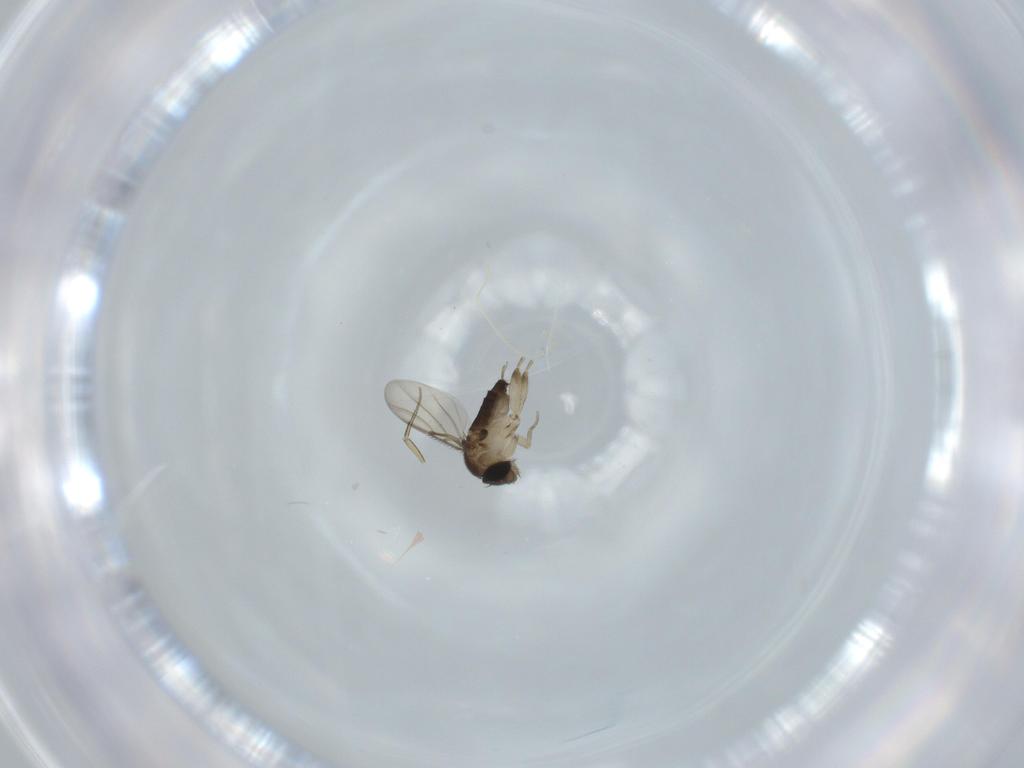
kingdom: Animalia
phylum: Arthropoda
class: Insecta
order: Diptera
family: Phoridae
